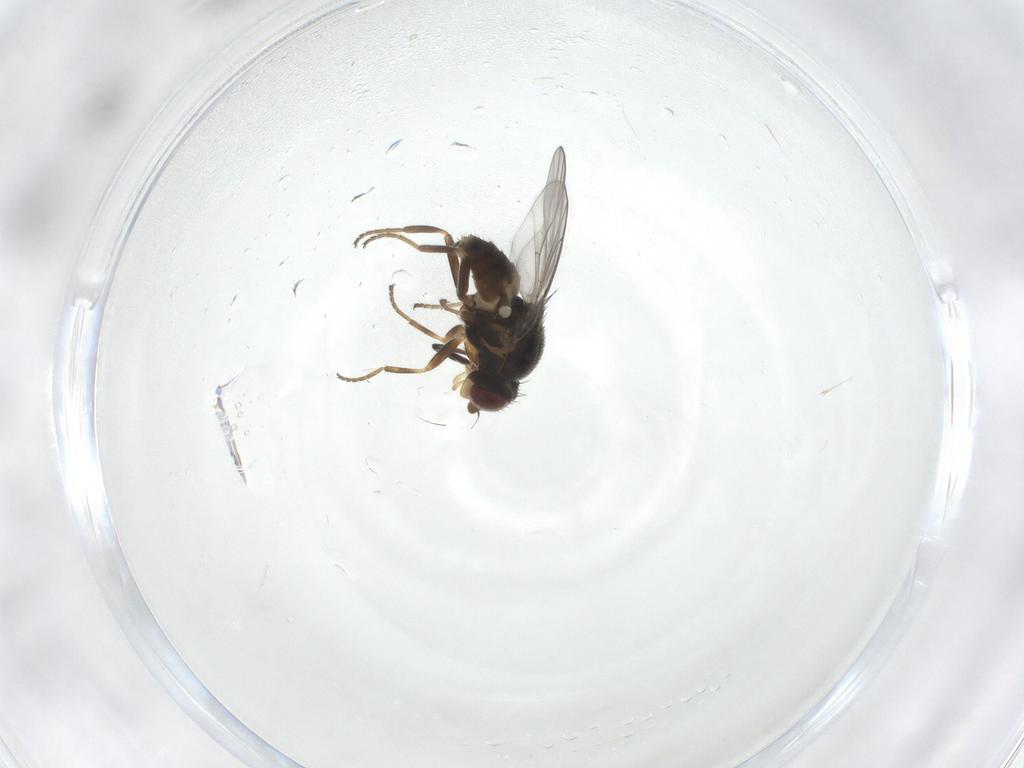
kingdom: Animalia
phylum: Arthropoda
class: Insecta
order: Diptera
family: Chloropidae
